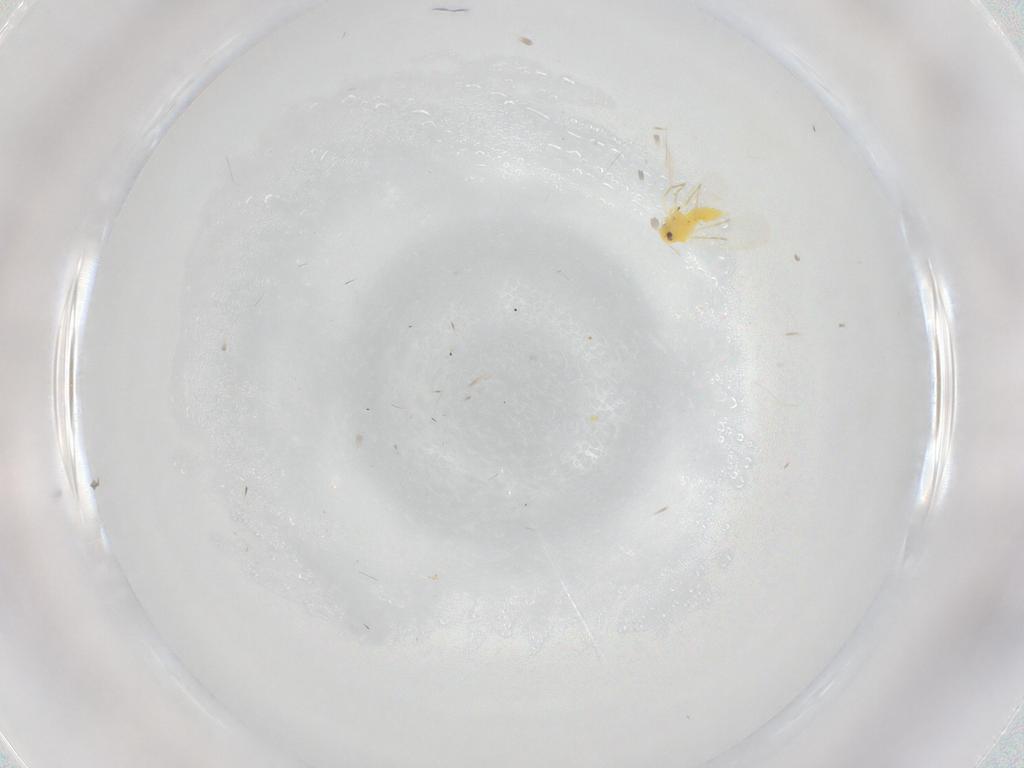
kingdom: Animalia
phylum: Arthropoda
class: Insecta
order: Hemiptera
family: Cicadellidae
